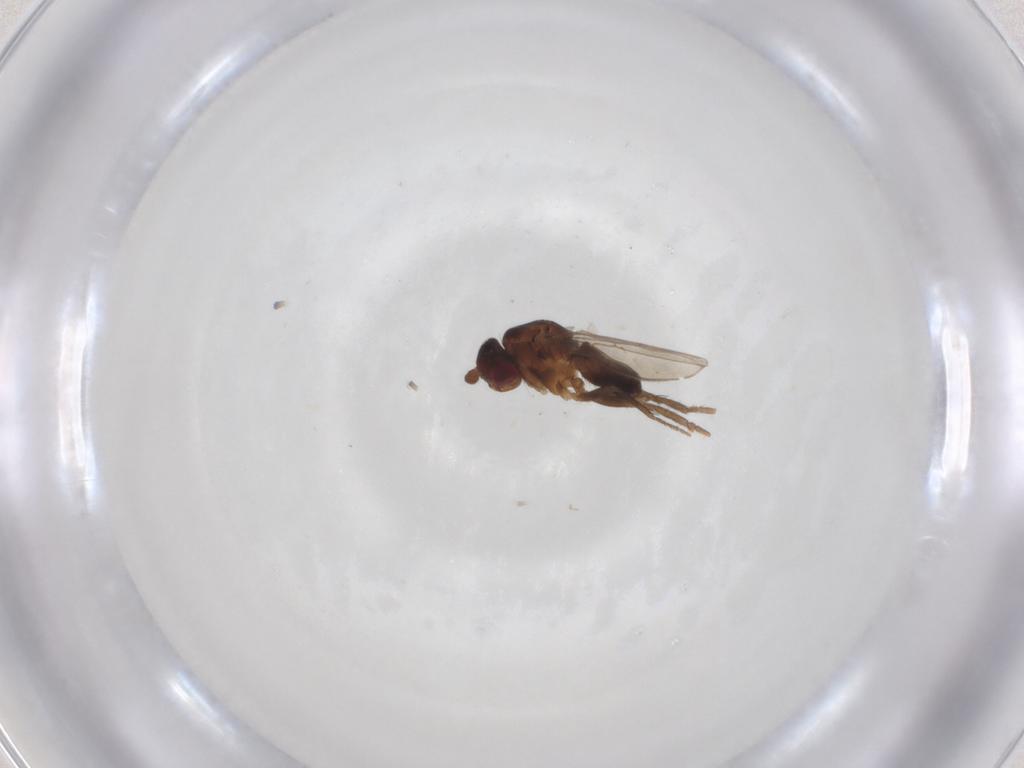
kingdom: Animalia
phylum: Arthropoda
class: Insecta
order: Diptera
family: Sphaeroceridae
